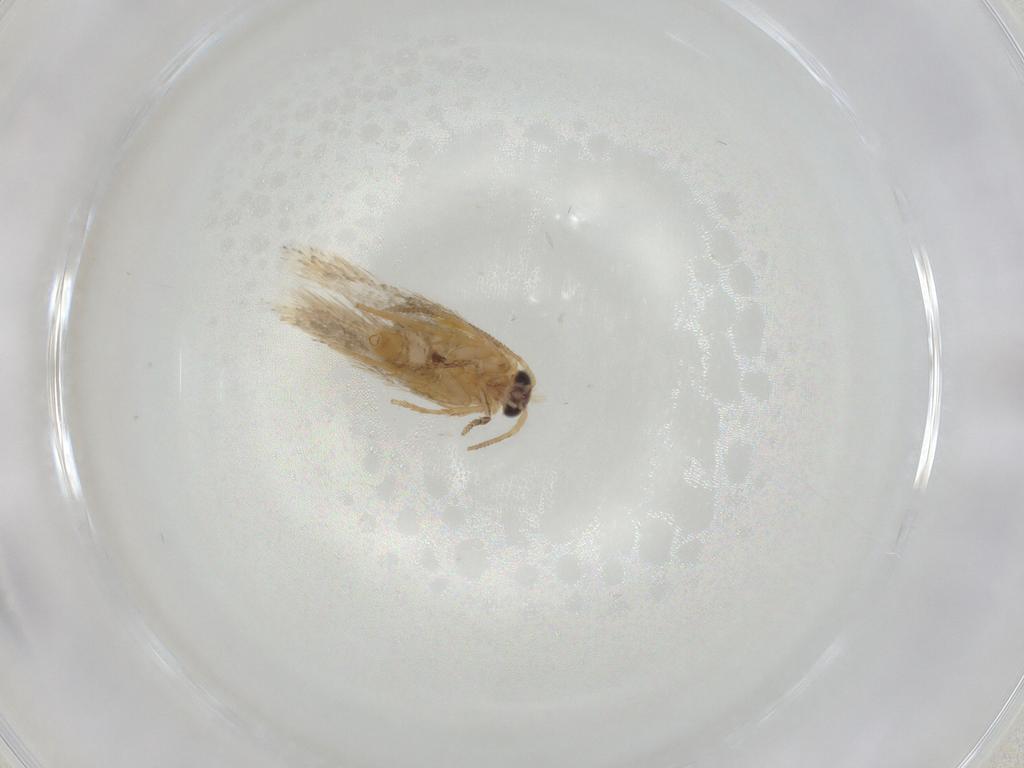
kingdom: Animalia
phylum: Arthropoda
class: Insecta
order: Lepidoptera
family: Nepticulidae
